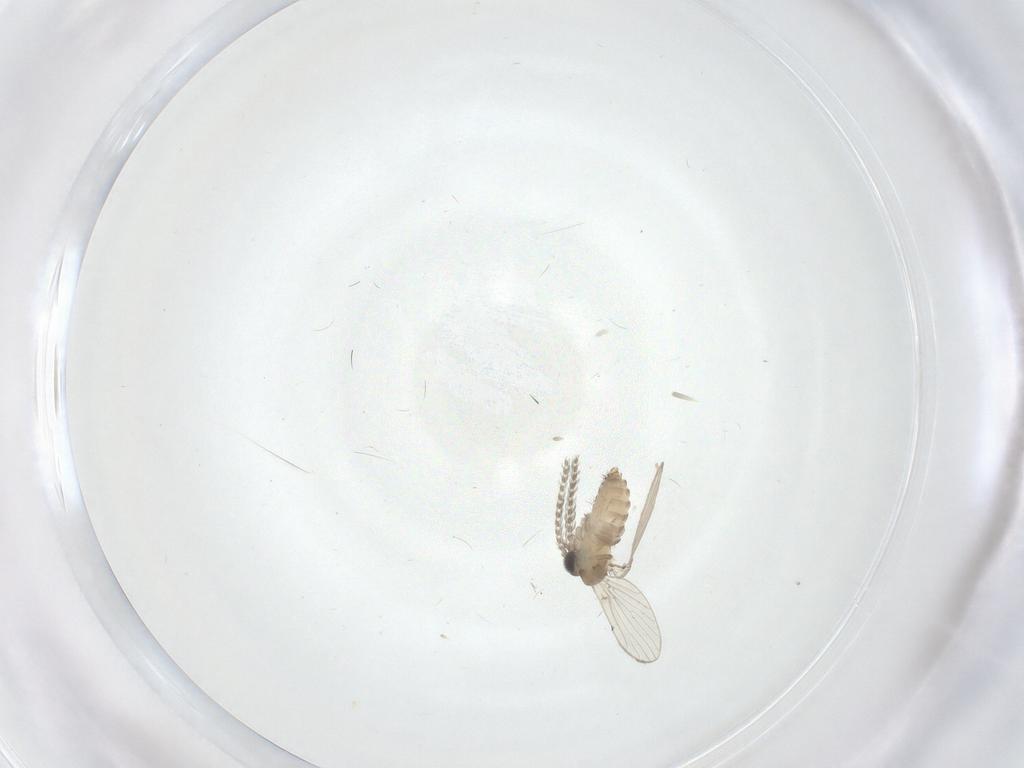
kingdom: Animalia
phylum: Arthropoda
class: Insecta
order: Diptera
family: Psychodidae
